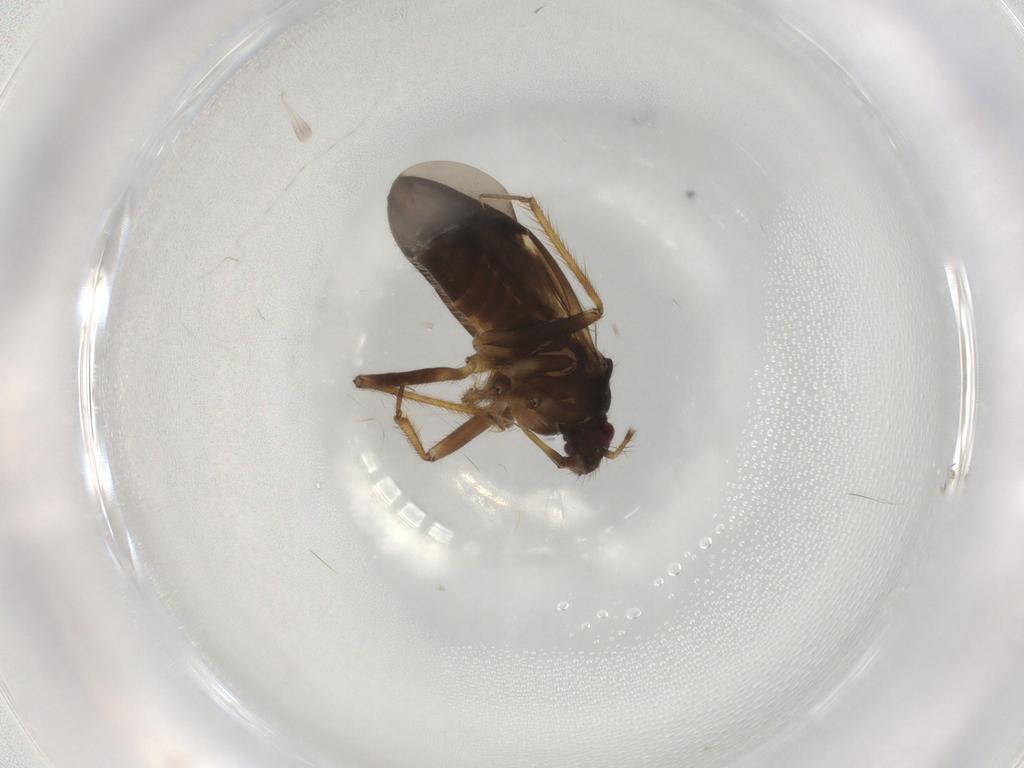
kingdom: Animalia
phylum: Arthropoda
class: Insecta
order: Hemiptera
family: Ceratocombidae
